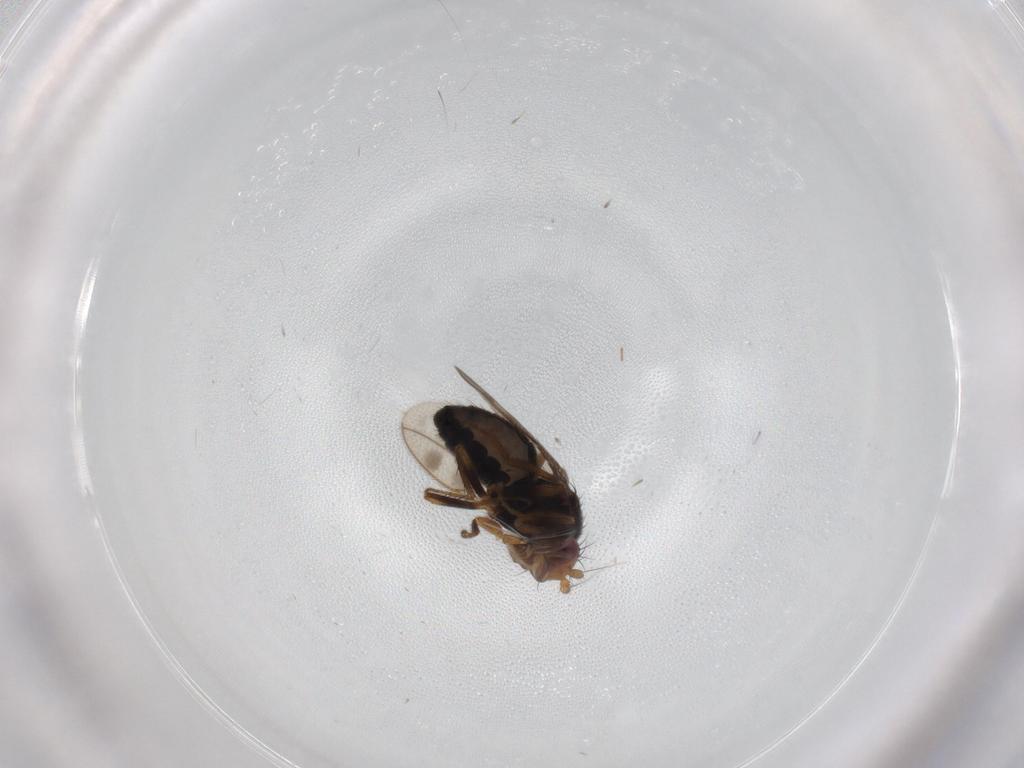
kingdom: Animalia
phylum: Arthropoda
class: Insecta
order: Diptera
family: Sphaeroceridae
